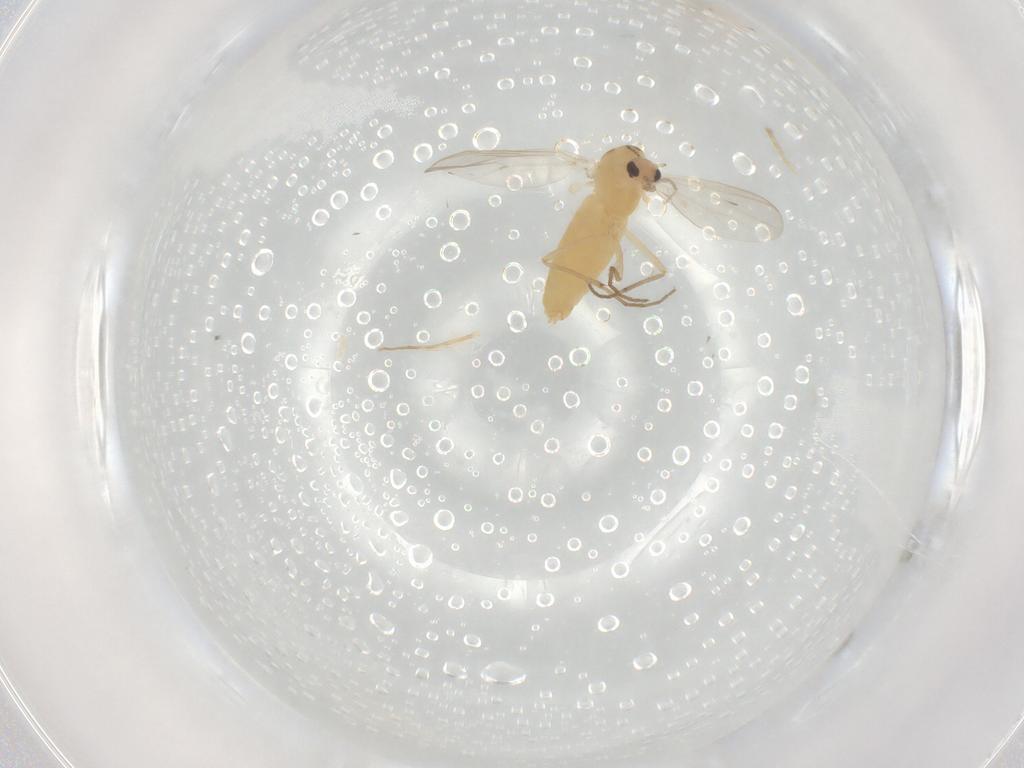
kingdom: Animalia
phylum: Arthropoda
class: Insecta
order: Diptera
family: Chironomidae
